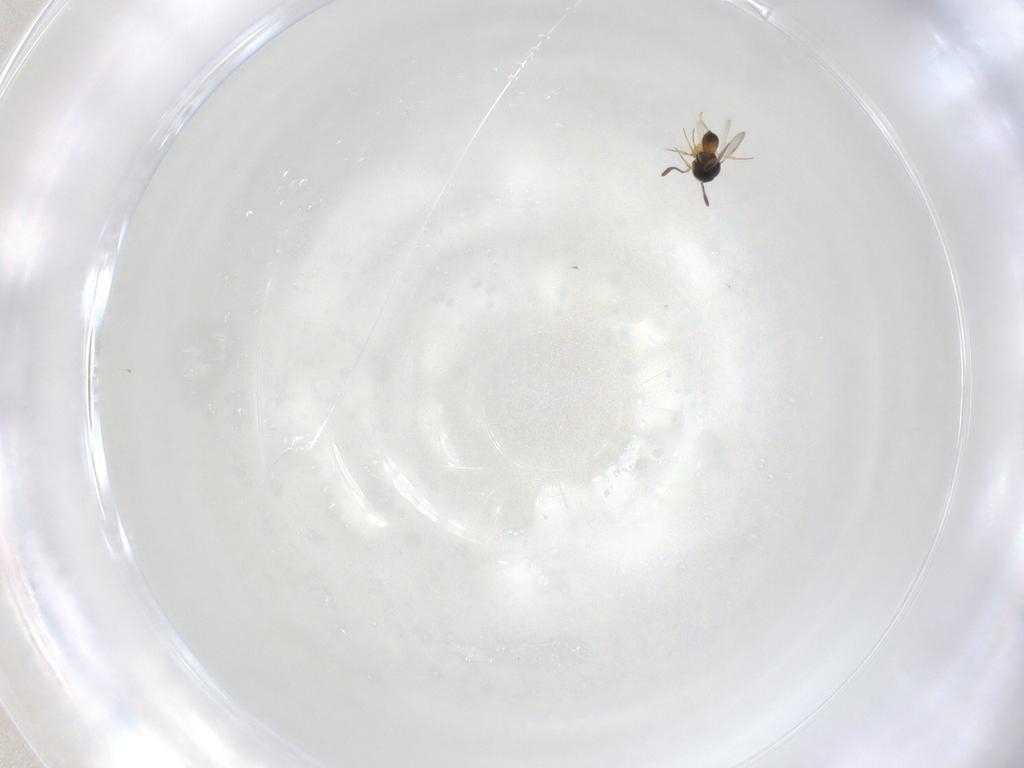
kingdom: Animalia
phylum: Arthropoda
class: Insecta
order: Hymenoptera
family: Scelionidae
